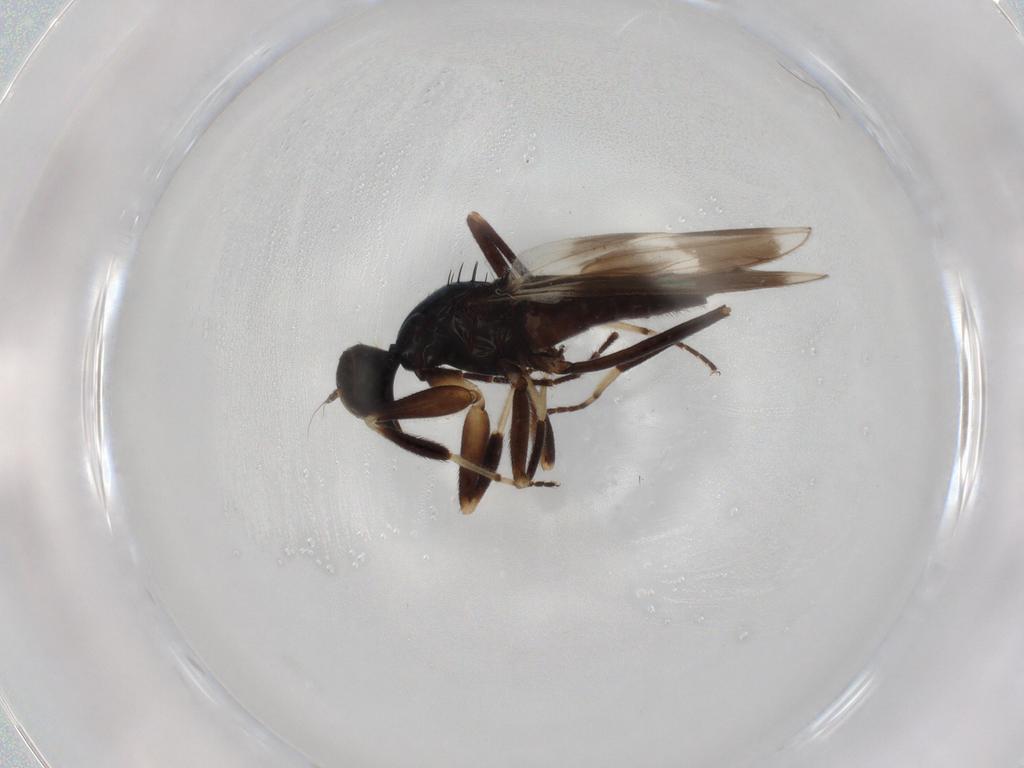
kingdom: Animalia
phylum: Arthropoda
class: Insecta
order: Diptera
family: Hybotidae
